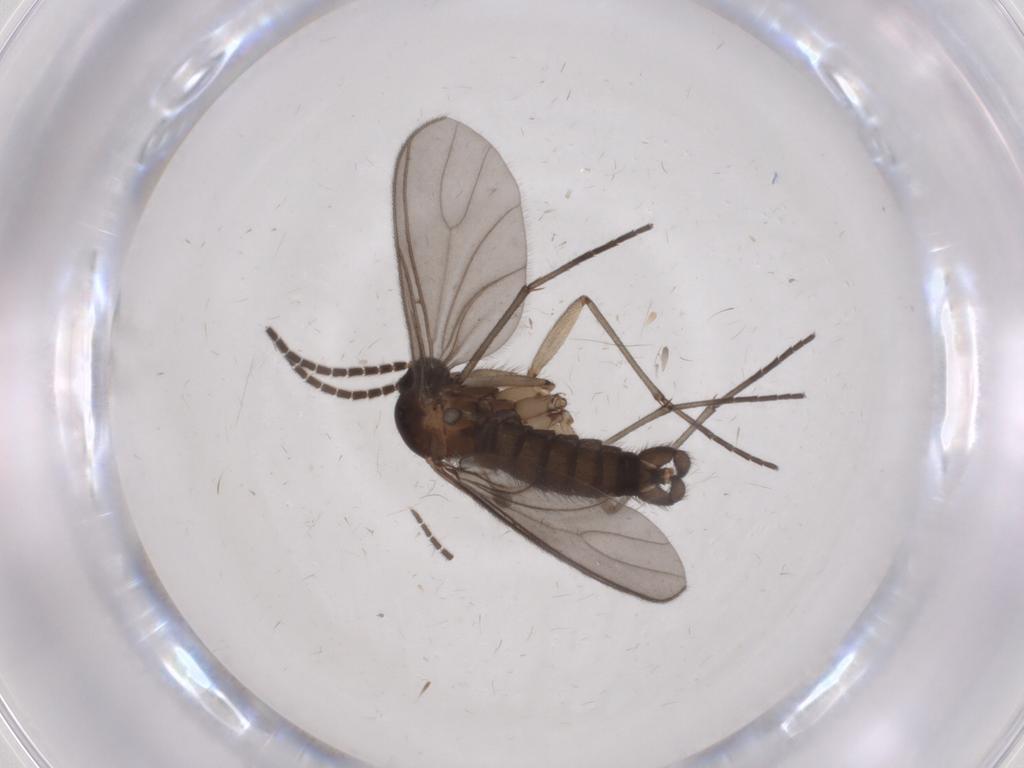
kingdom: Animalia
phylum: Arthropoda
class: Insecta
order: Diptera
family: Sciaridae
